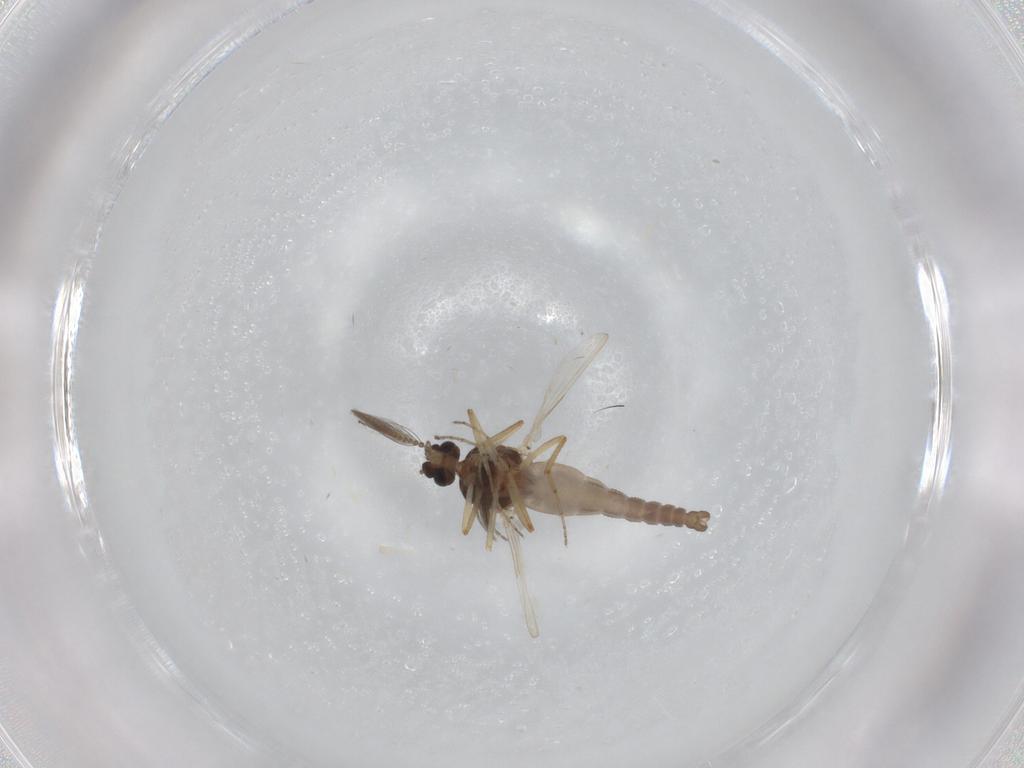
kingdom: Animalia
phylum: Arthropoda
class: Insecta
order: Diptera
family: Ceratopogonidae
